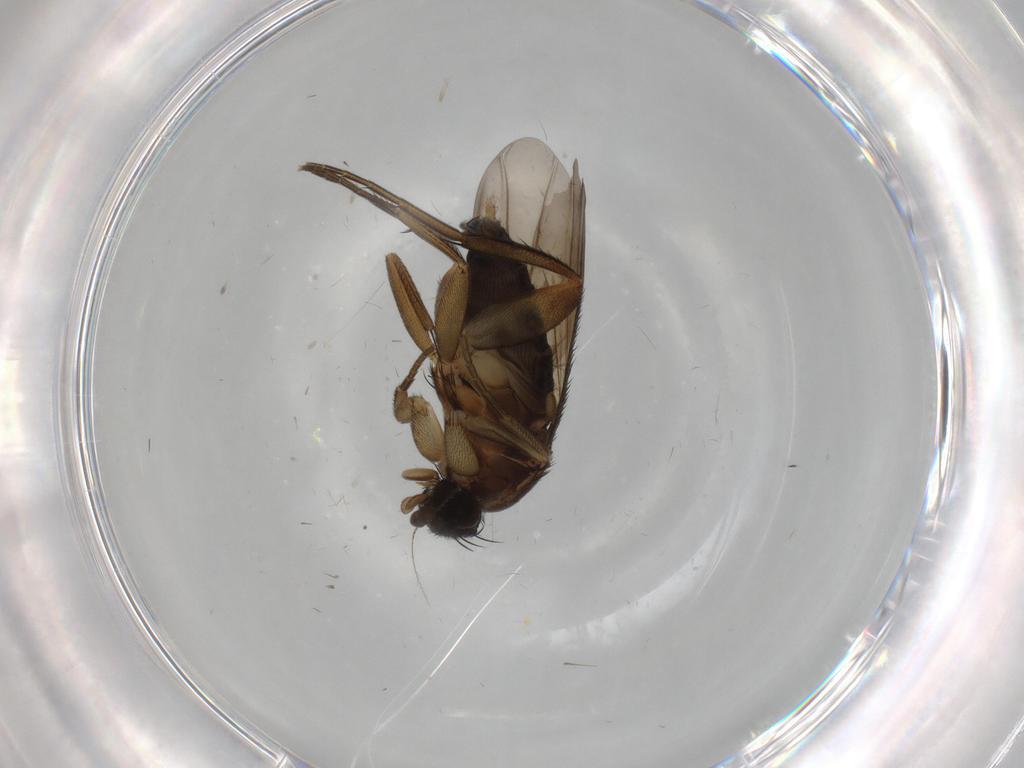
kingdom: Animalia
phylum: Arthropoda
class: Insecta
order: Diptera
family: Phoridae
